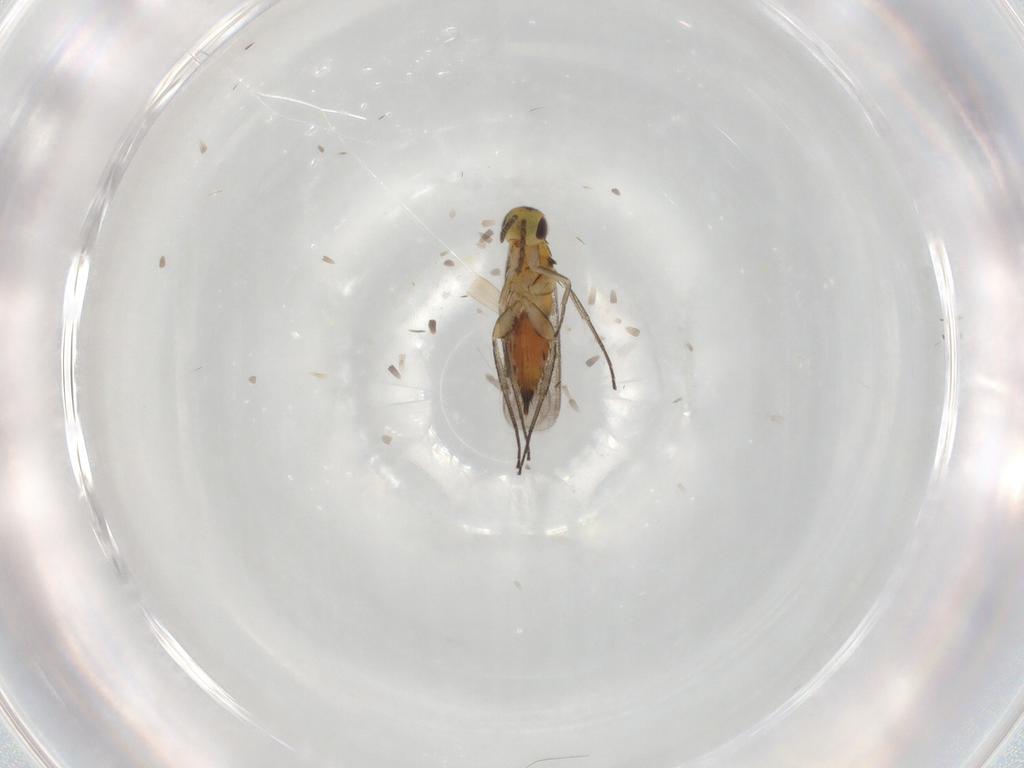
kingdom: Animalia
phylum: Arthropoda
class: Insecta
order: Hymenoptera
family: Eulophidae
